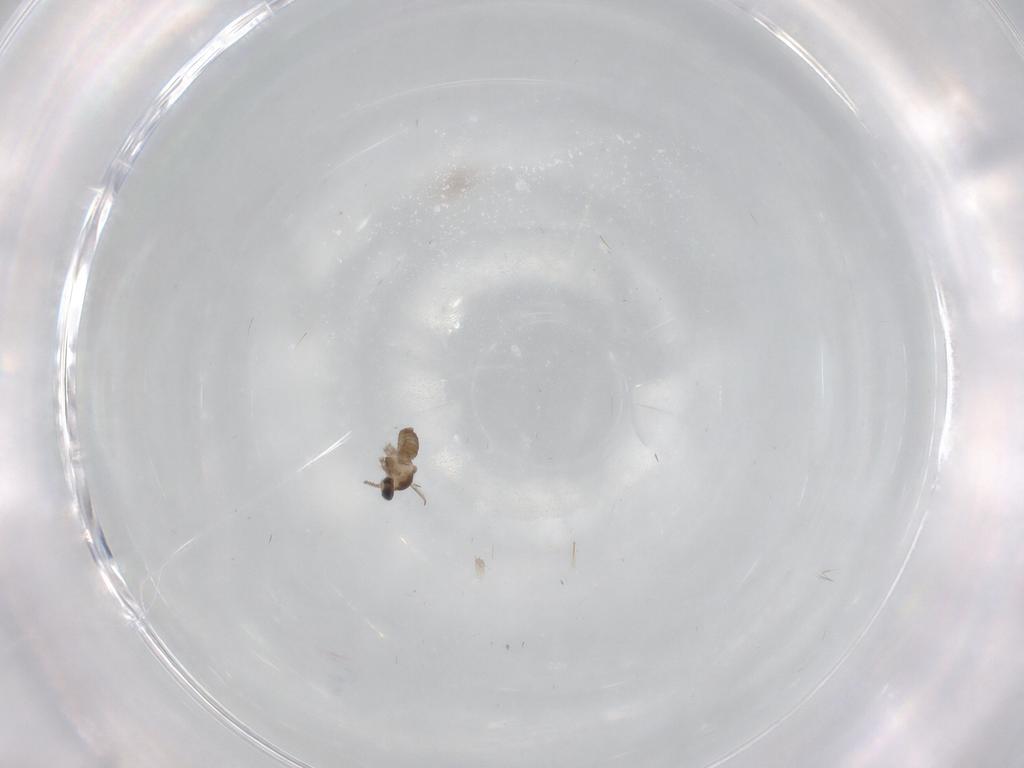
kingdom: Animalia
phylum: Arthropoda
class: Insecta
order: Diptera
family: Cecidomyiidae
